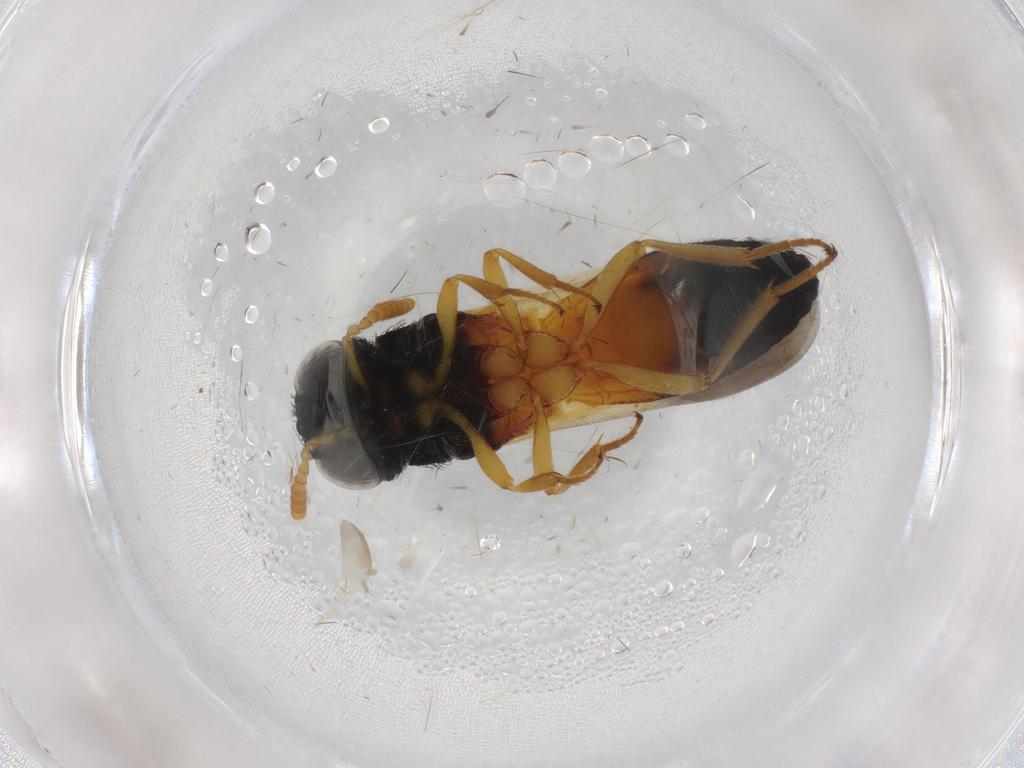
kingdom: Animalia
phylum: Arthropoda
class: Insecta
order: Hymenoptera
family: Scelionidae
